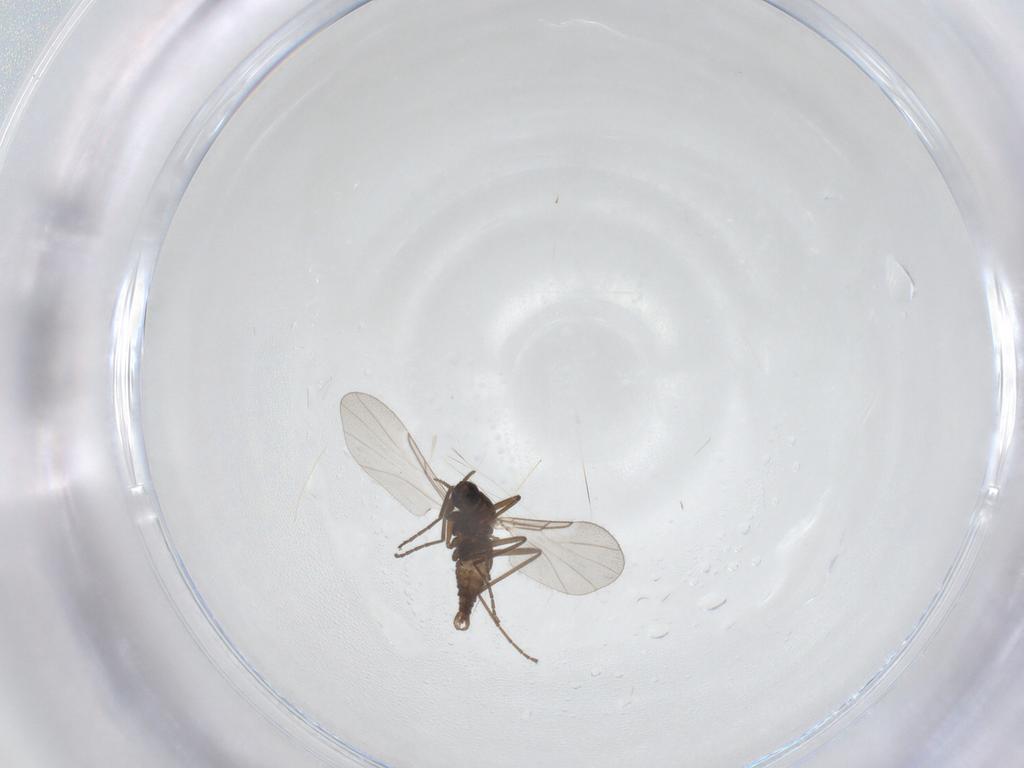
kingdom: Animalia
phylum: Arthropoda
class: Insecta
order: Diptera
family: Cecidomyiidae
